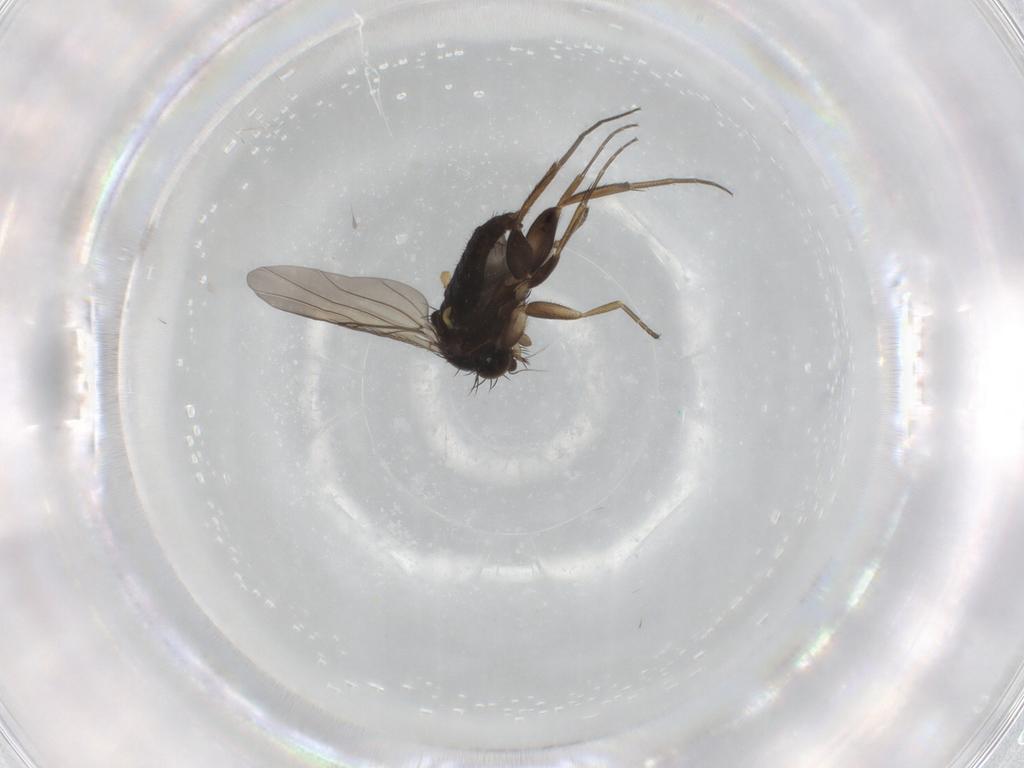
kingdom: Animalia
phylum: Arthropoda
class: Insecta
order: Diptera
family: Phoridae
